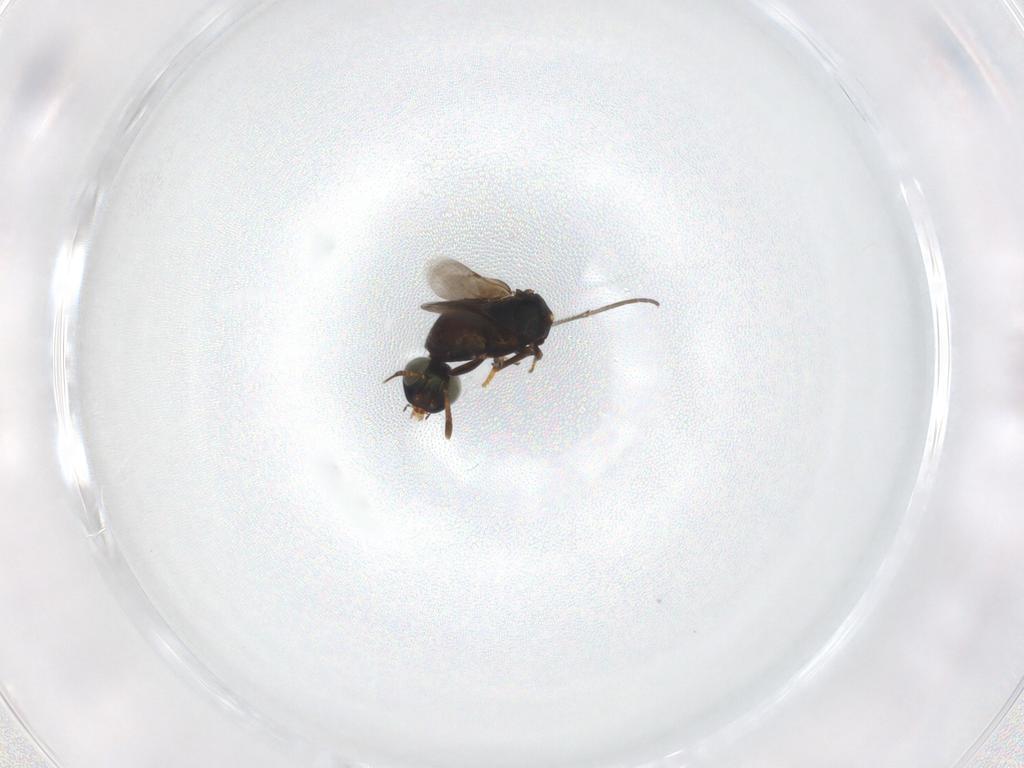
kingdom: Animalia
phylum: Arthropoda
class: Insecta
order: Hymenoptera
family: Encyrtidae
